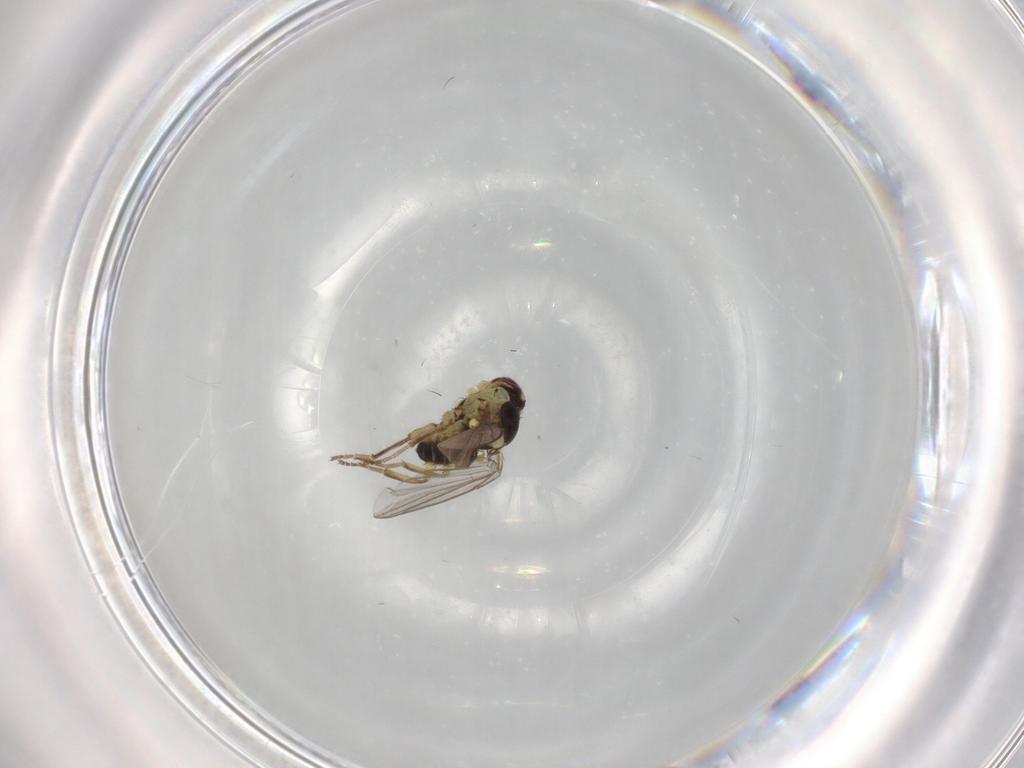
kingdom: Animalia
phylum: Arthropoda
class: Insecta
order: Diptera
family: Agromyzidae
